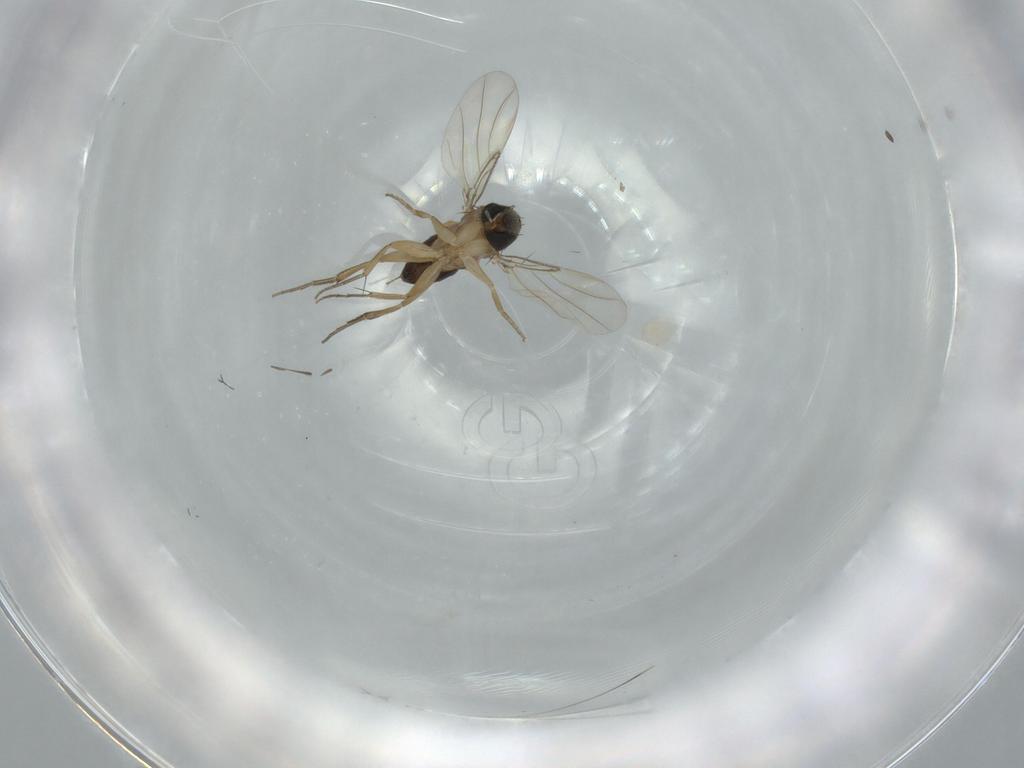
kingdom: Animalia
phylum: Arthropoda
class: Insecta
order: Diptera
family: Phoridae
